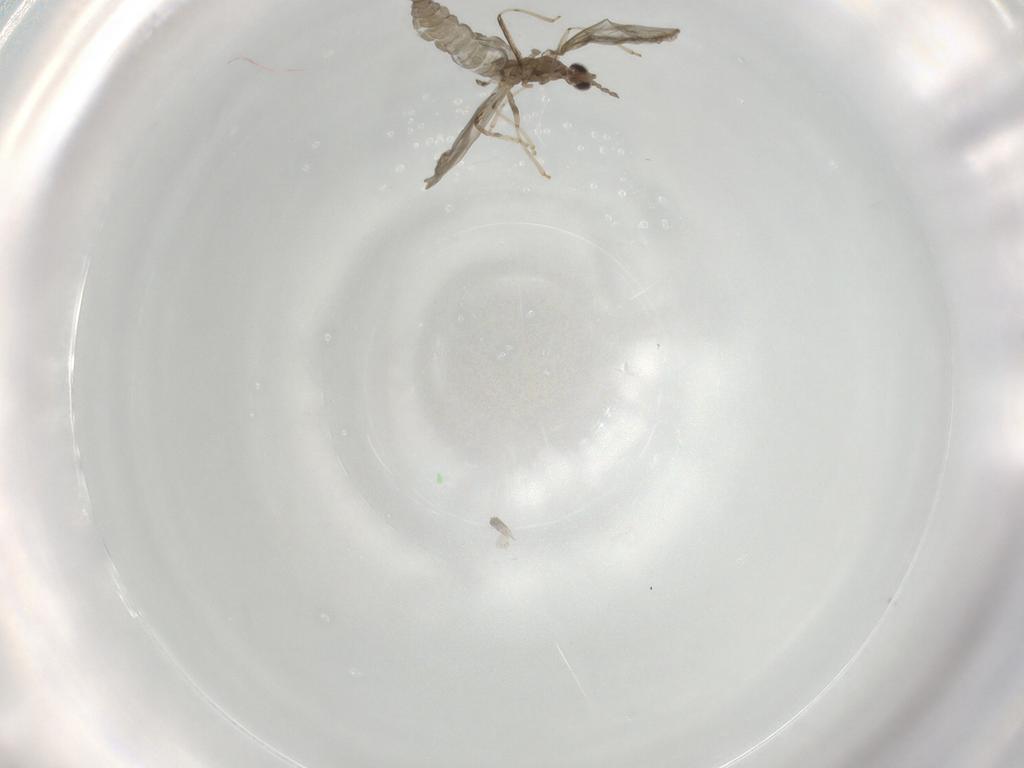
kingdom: Animalia
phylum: Arthropoda
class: Insecta
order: Diptera
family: Cecidomyiidae
